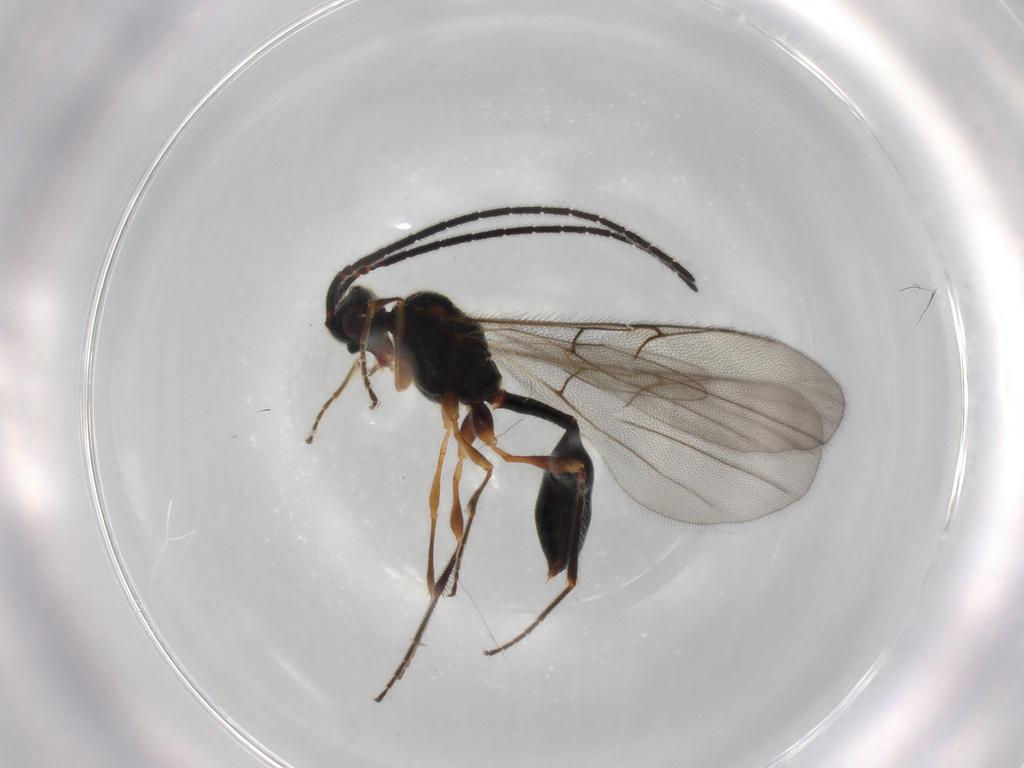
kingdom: Animalia
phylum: Arthropoda
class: Insecta
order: Hymenoptera
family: Diapriidae
